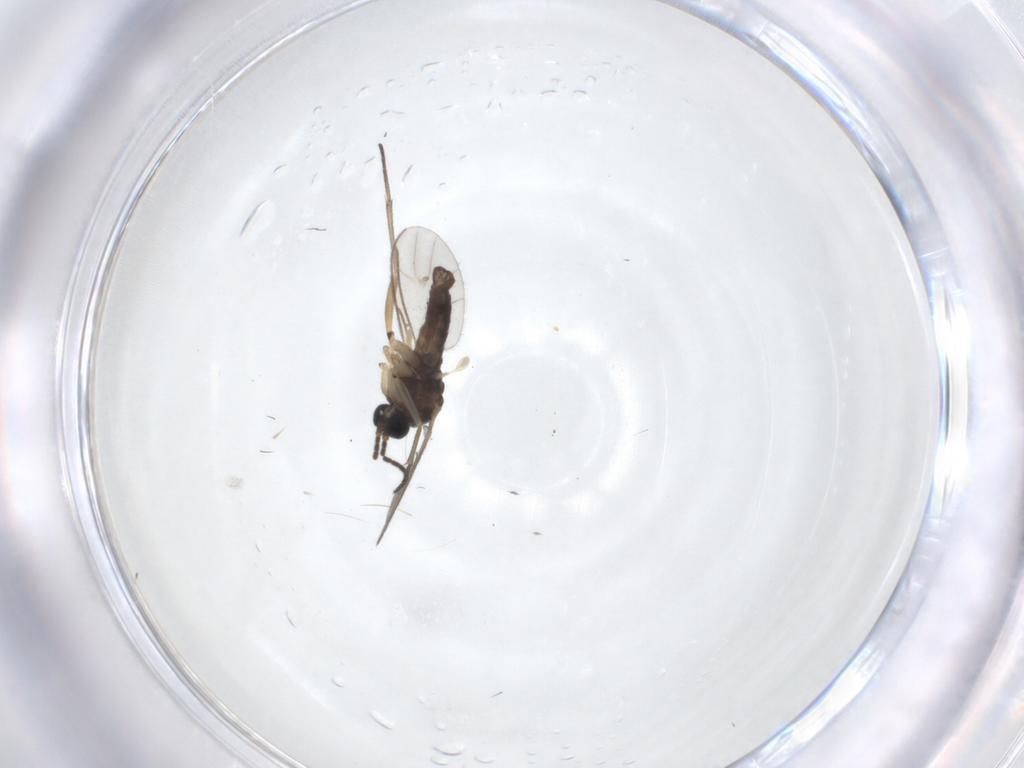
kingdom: Animalia
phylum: Arthropoda
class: Insecta
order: Diptera
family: Sciaridae
